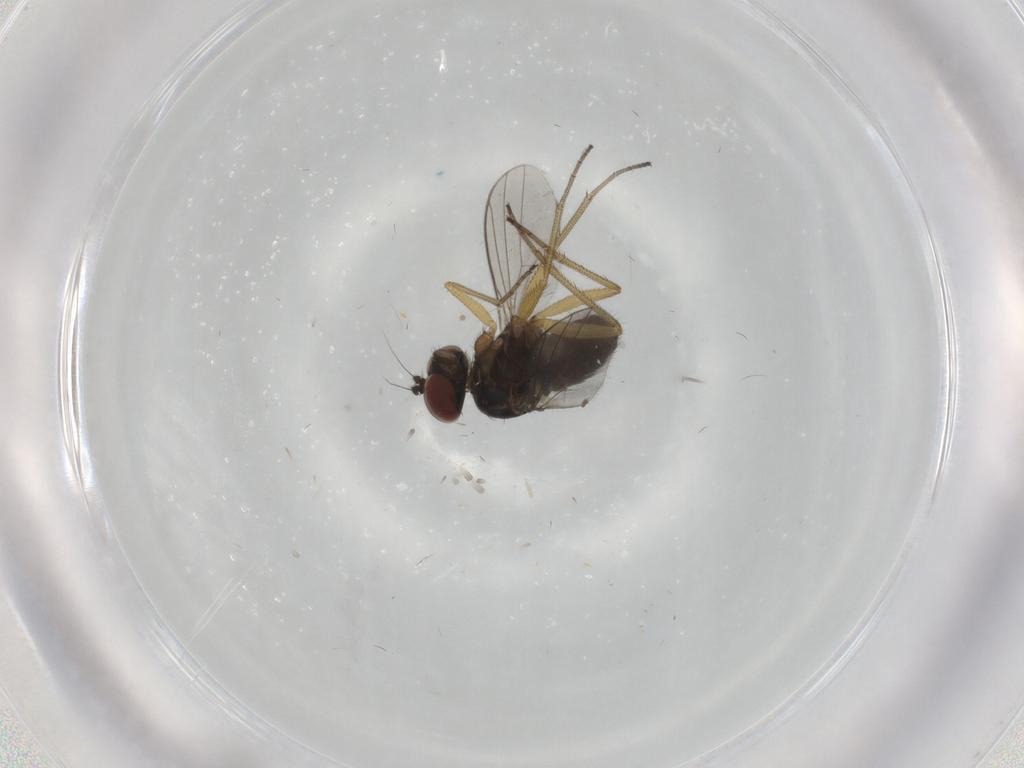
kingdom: Animalia
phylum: Arthropoda
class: Insecta
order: Diptera
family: Dolichopodidae
